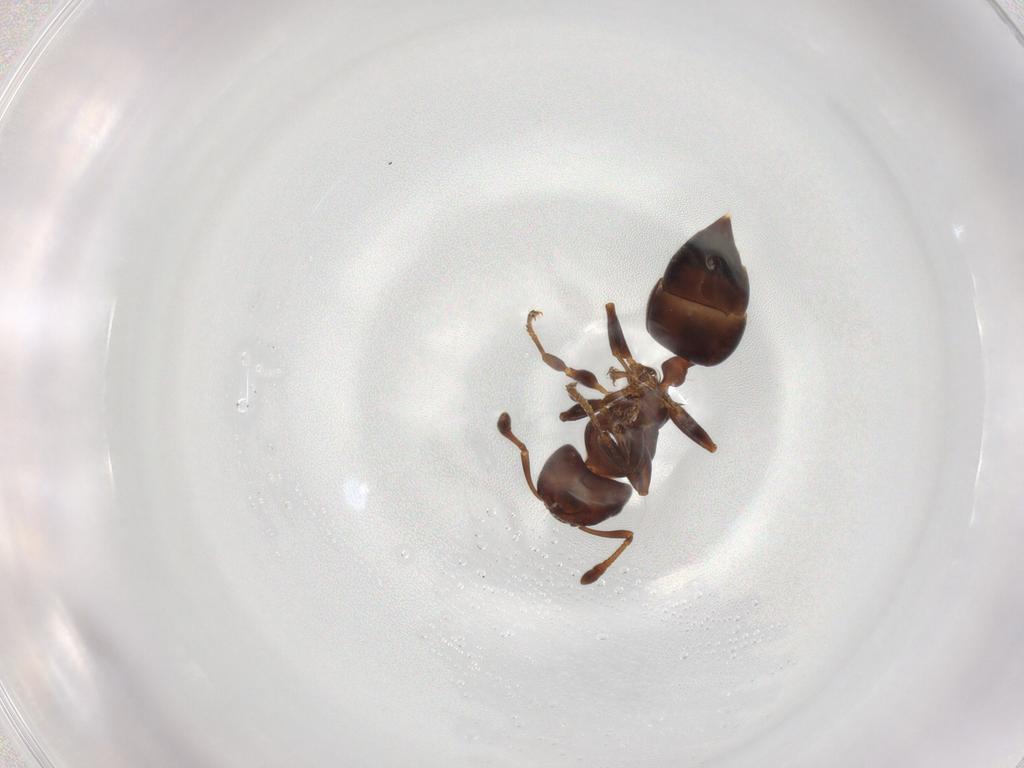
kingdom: Animalia
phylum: Arthropoda
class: Insecta
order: Hymenoptera
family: Formicidae
